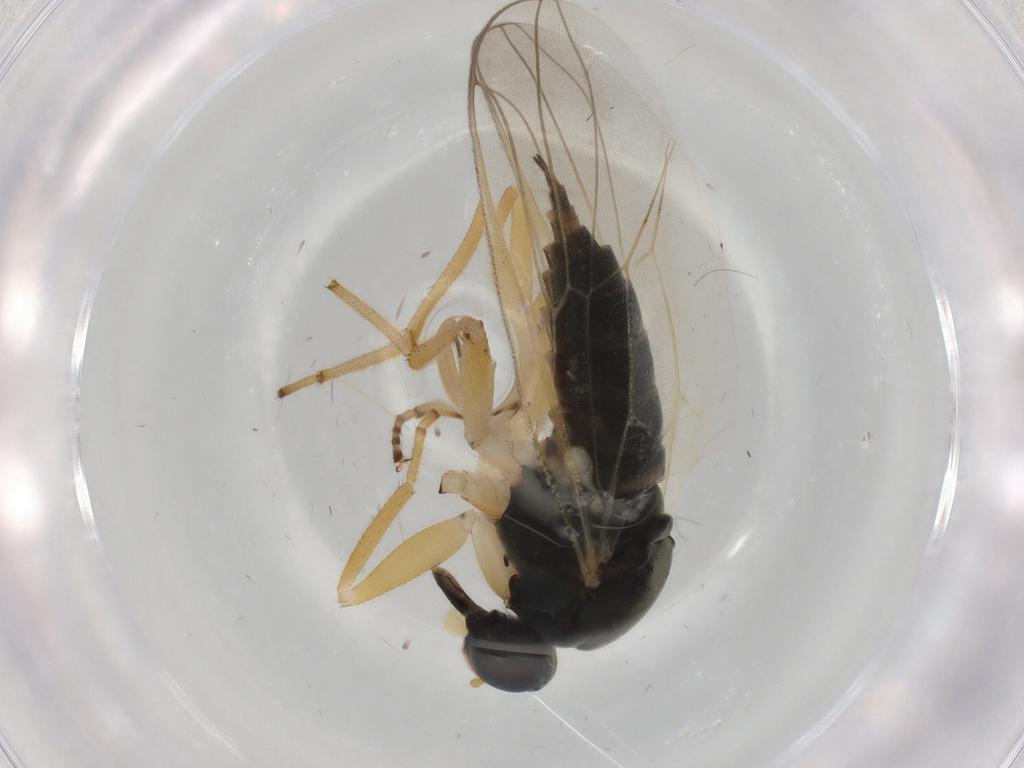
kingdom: Animalia
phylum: Arthropoda
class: Insecta
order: Diptera
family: Hybotidae
